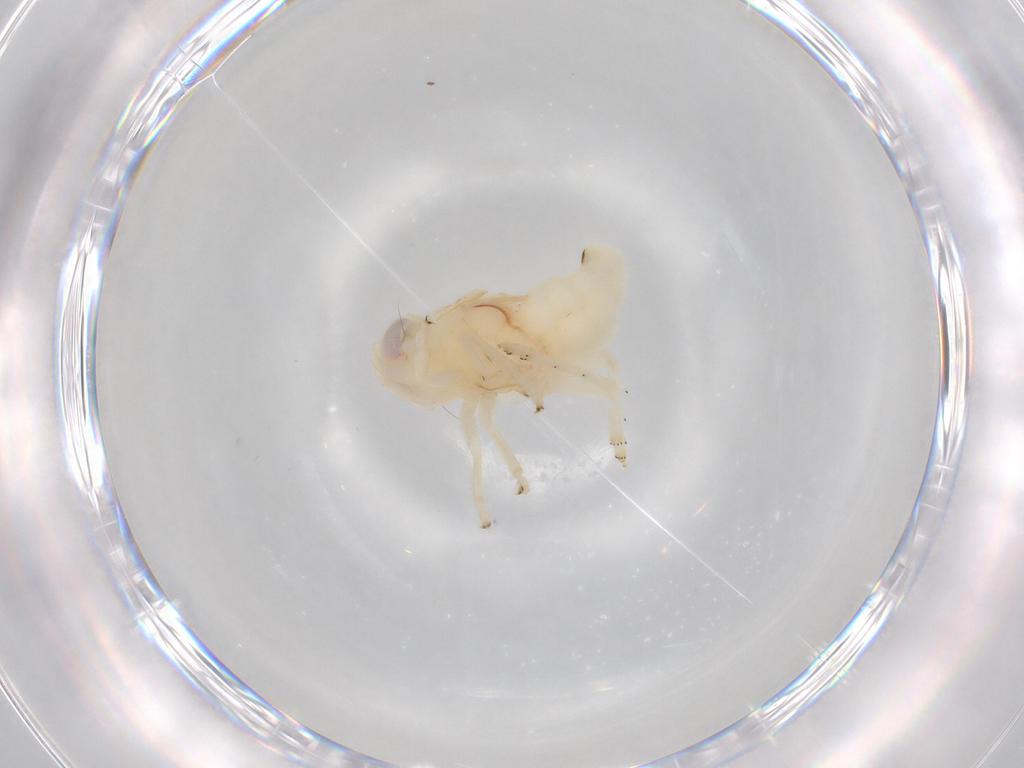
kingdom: Animalia
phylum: Arthropoda
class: Insecta
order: Hemiptera
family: Nogodinidae
